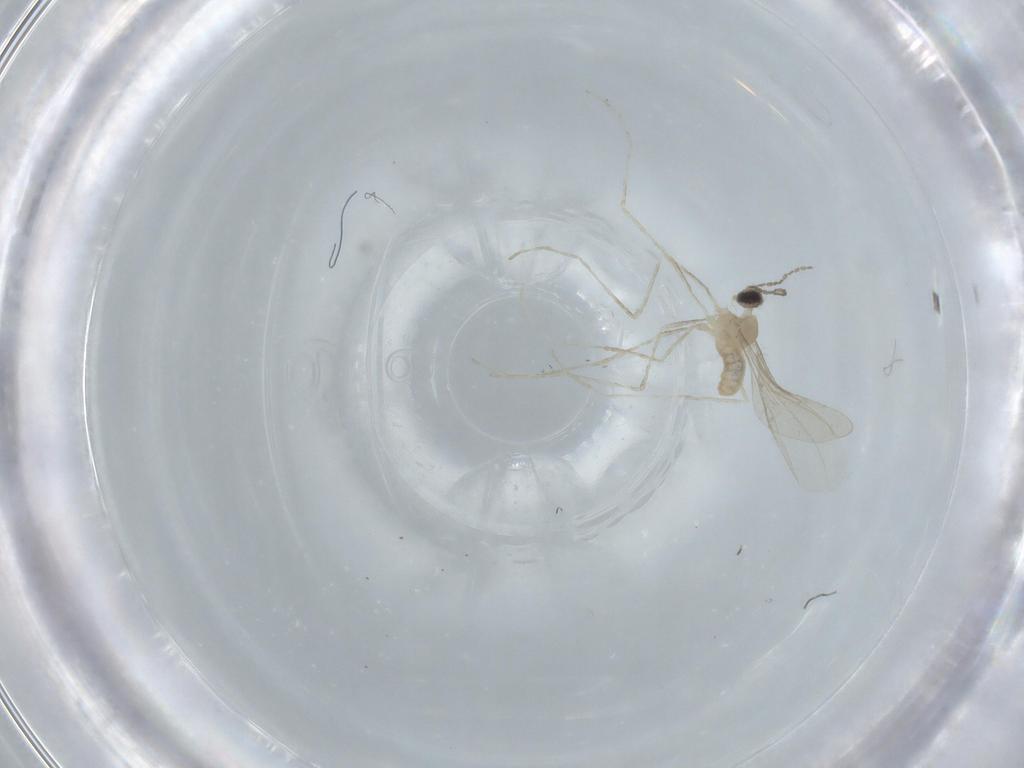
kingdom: Animalia
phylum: Arthropoda
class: Insecta
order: Diptera
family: Cecidomyiidae
